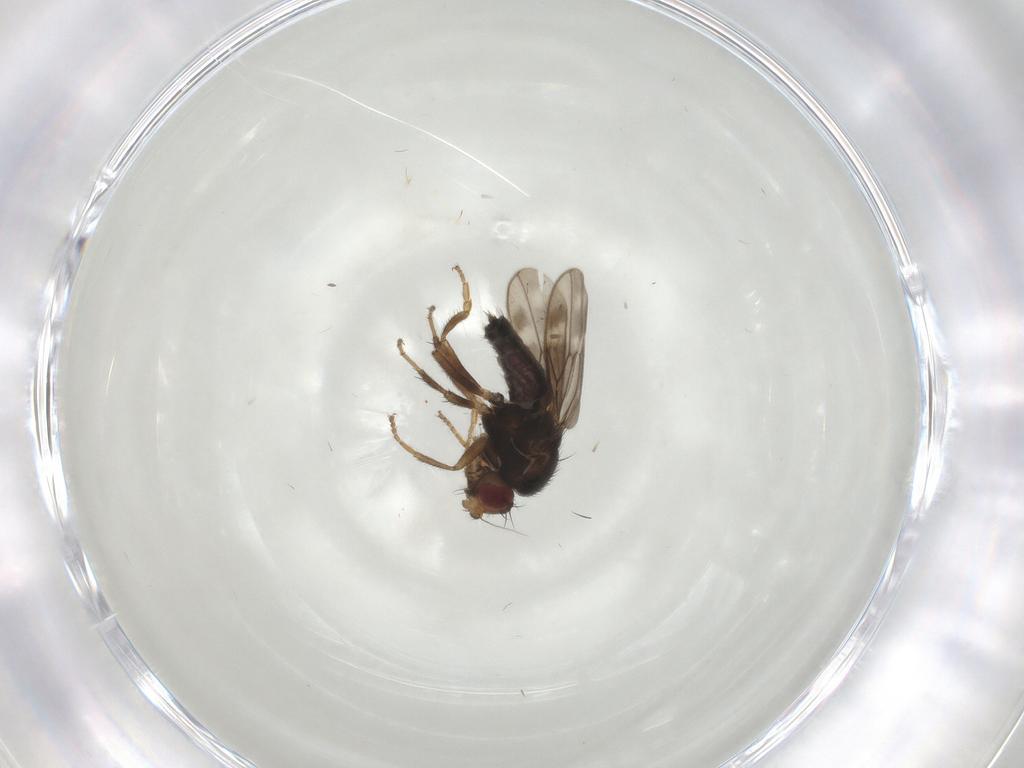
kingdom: Animalia
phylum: Arthropoda
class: Insecta
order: Diptera
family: Sphaeroceridae
